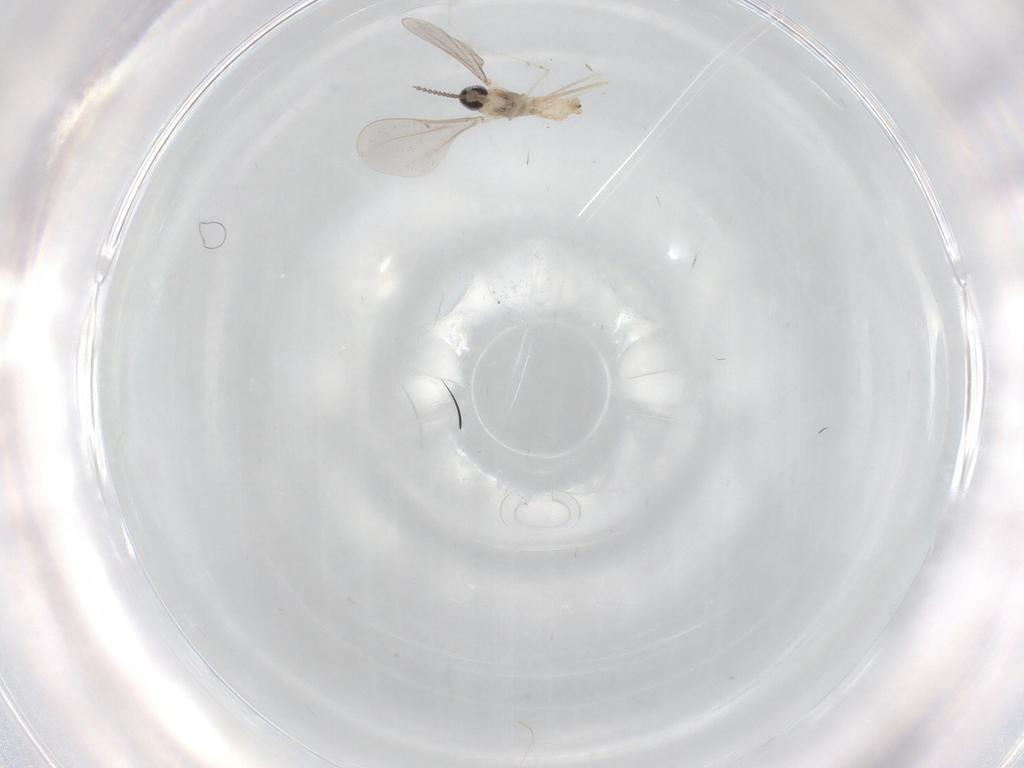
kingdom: Animalia
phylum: Arthropoda
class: Insecta
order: Diptera
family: Cecidomyiidae
